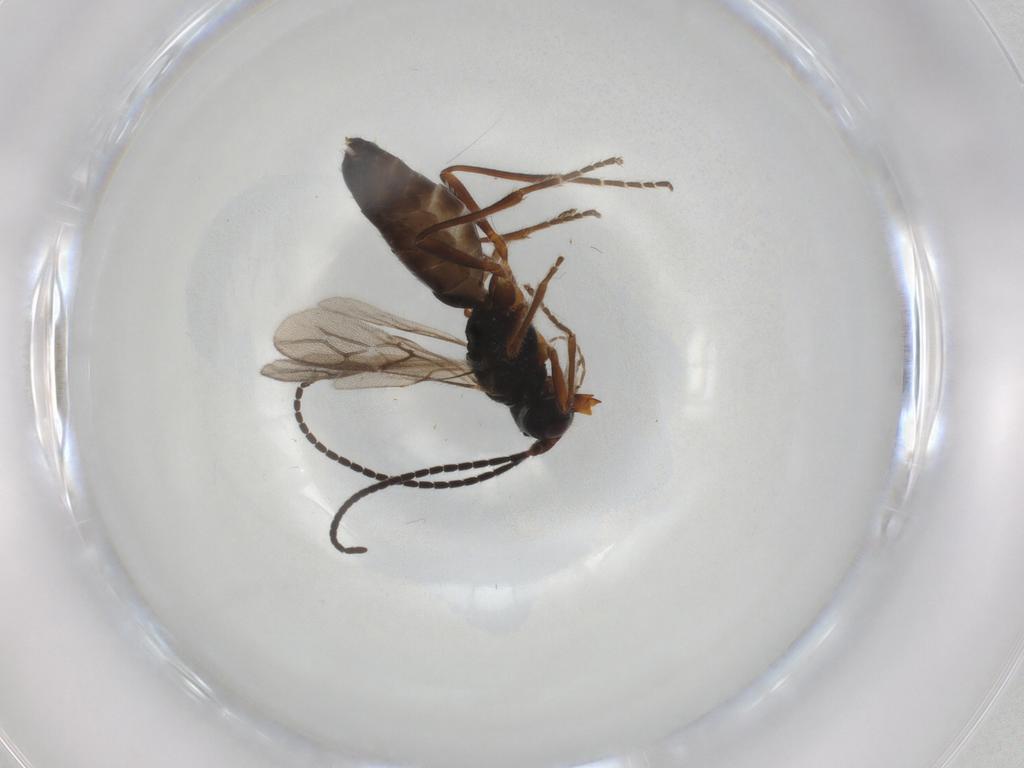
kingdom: Animalia
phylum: Arthropoda
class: Insecta
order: Hymenoptera
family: Braconidae
